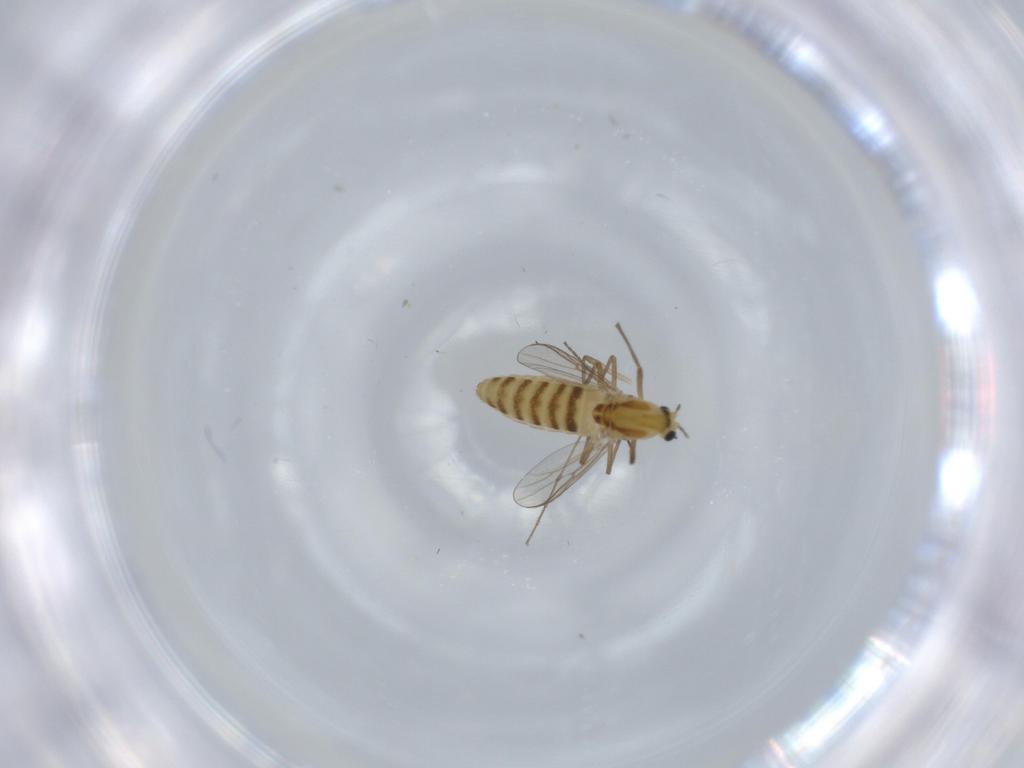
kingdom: Animalia
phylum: Arthropoda
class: Insecta
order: Diptera
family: Chironomidae
